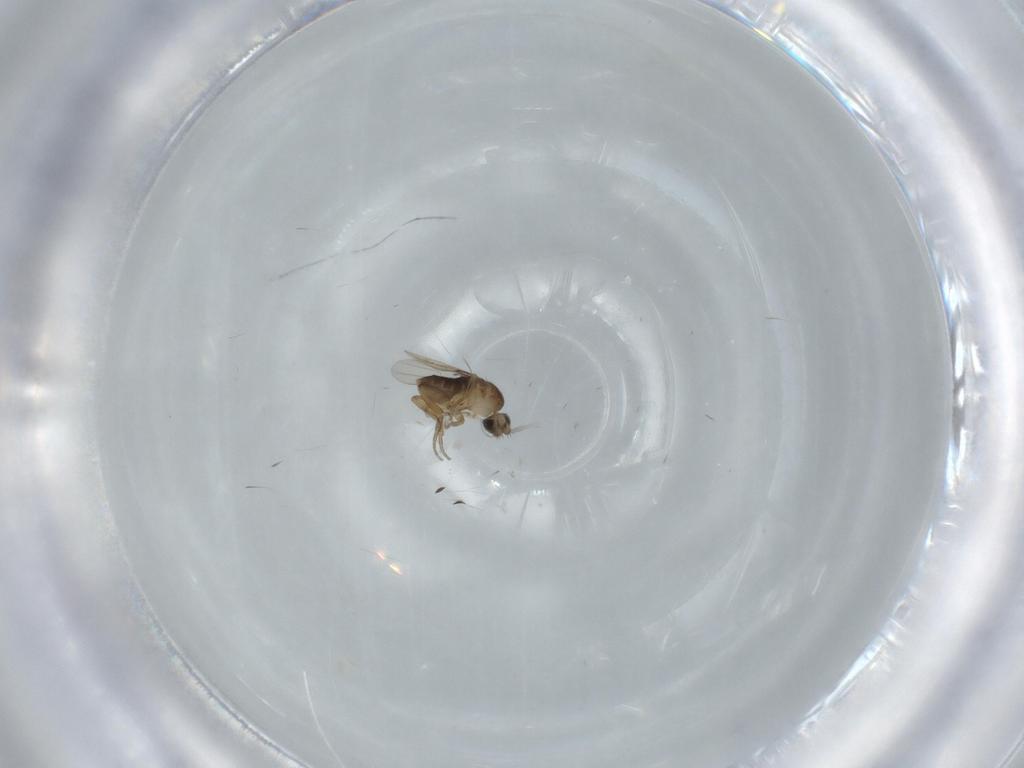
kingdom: Animalia
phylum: Arthropoda
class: Insecta
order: Diptera
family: Phoridae
